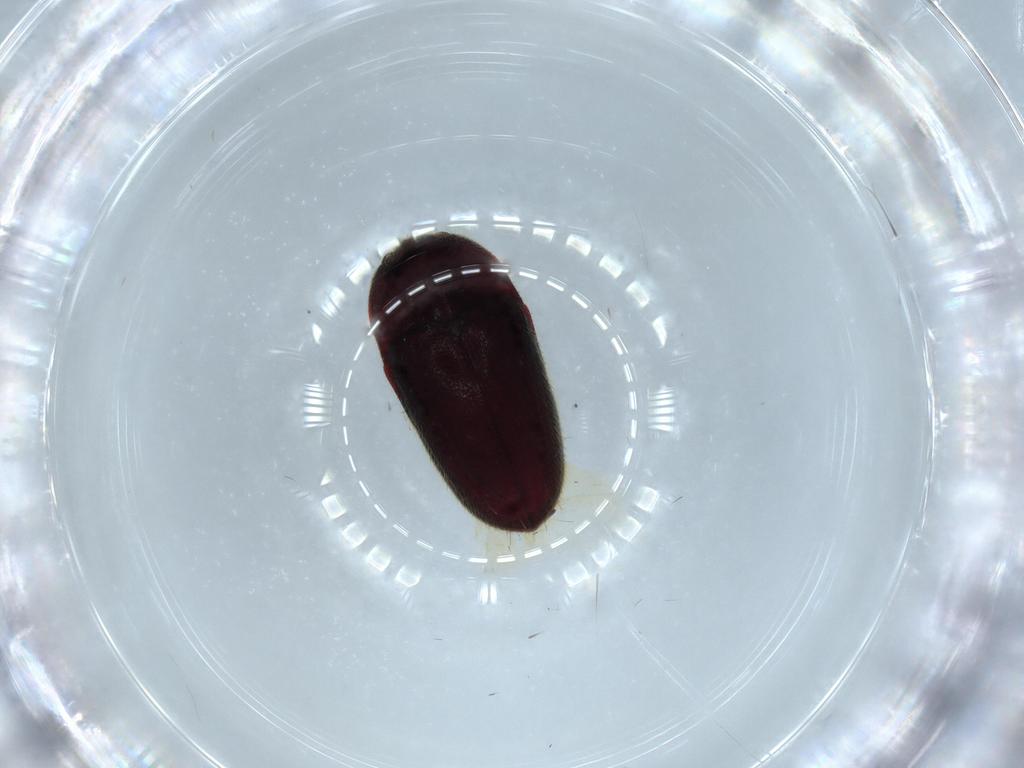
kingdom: Animalia
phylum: Arthropoda
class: Insecta
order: Coleoptera
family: Throscidae
